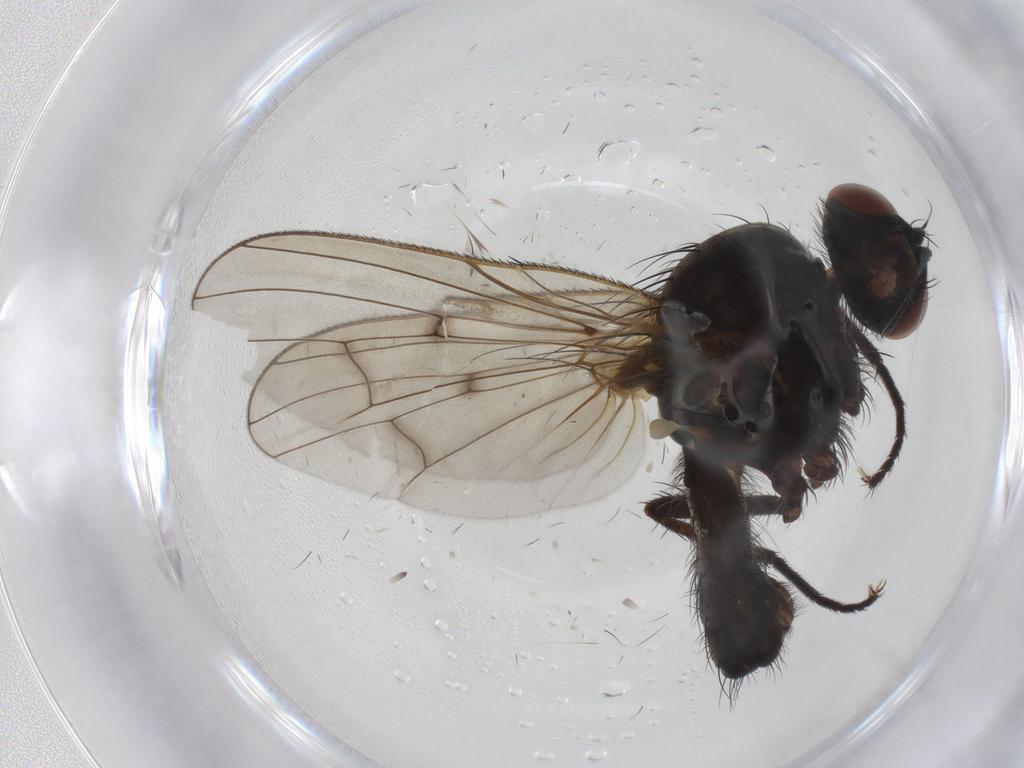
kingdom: Animalia
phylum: Arthropoda
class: Insecta
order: Diptera
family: Anthomyiidae
